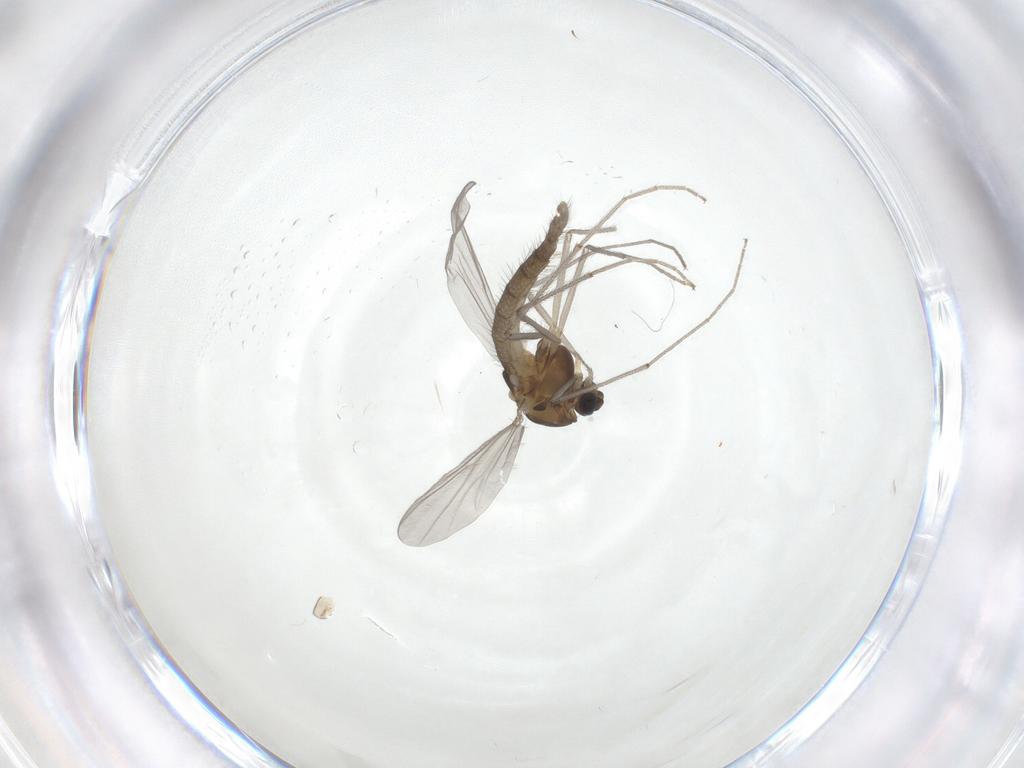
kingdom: Animalia
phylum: Arthropoda
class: Insecta
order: Diptera
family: Chironomidae
